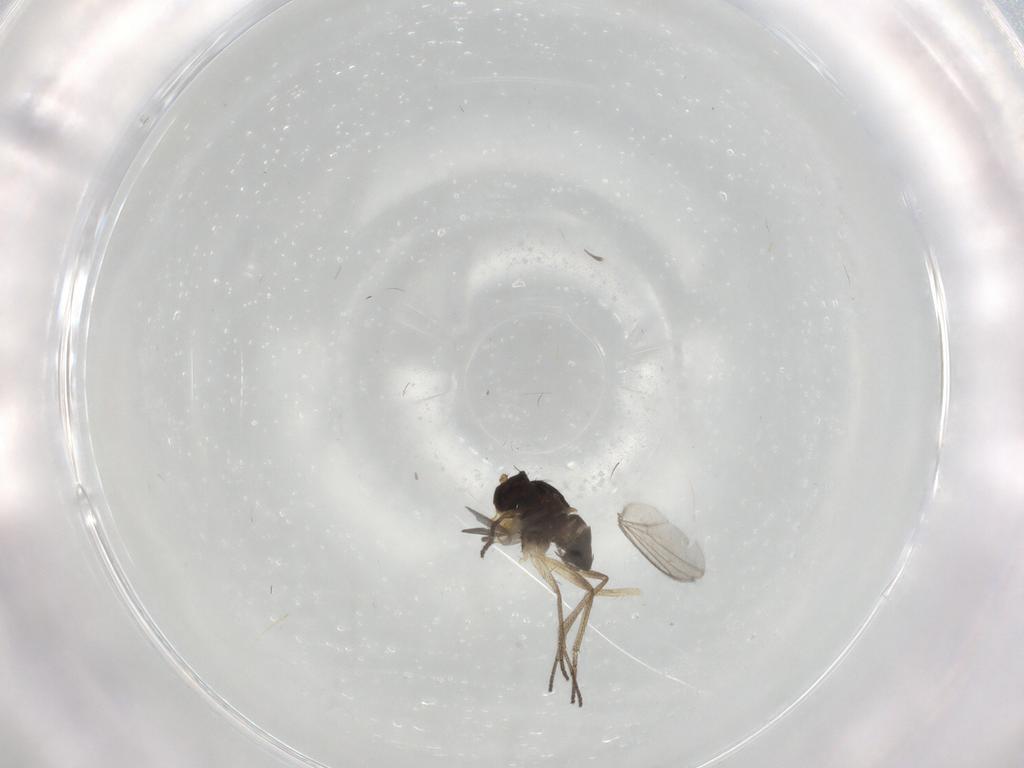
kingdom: Animalia
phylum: Arthropoda
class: Insecta
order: Diptera
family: Dolichopodidae
